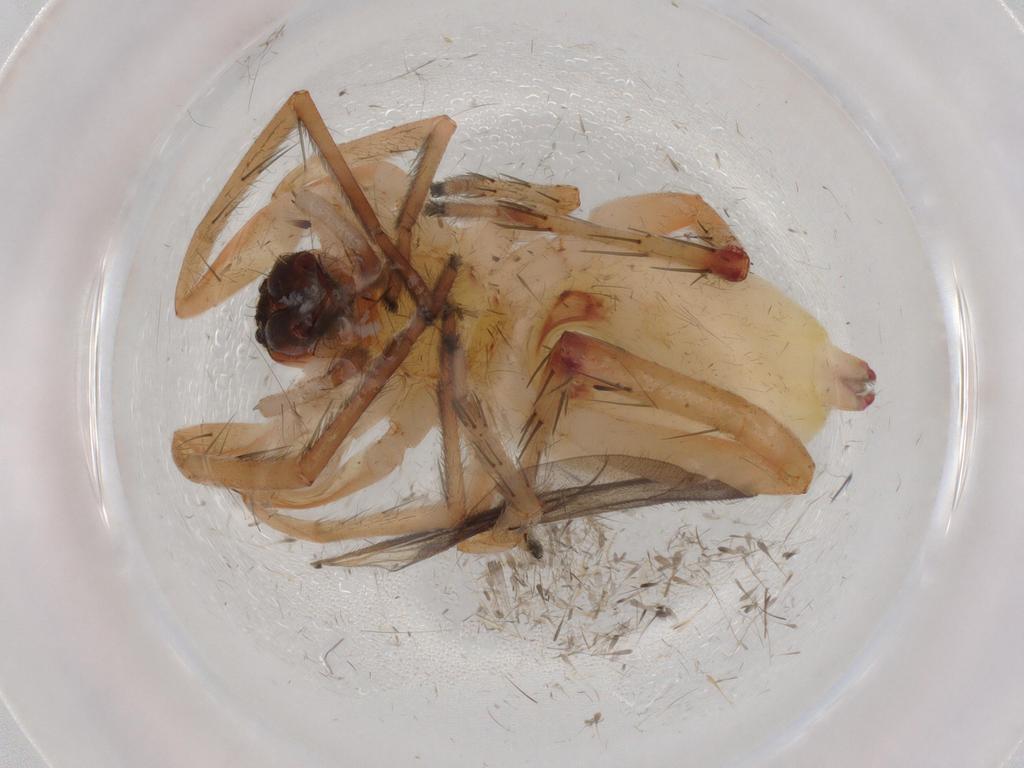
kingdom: Animalia
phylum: Arthropoda
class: Arachnida
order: Araneae
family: Anyphaenidae
